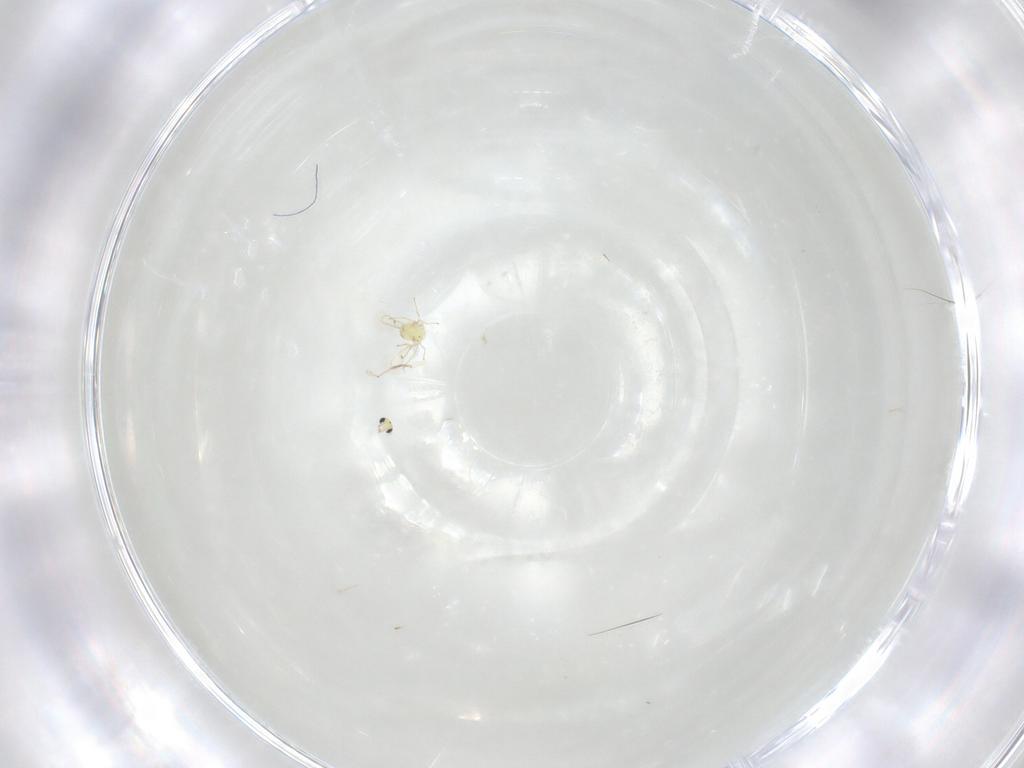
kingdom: Animalia
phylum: Arthropoda
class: Insecta
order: Hymenoptera
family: Trichogrammatidae
